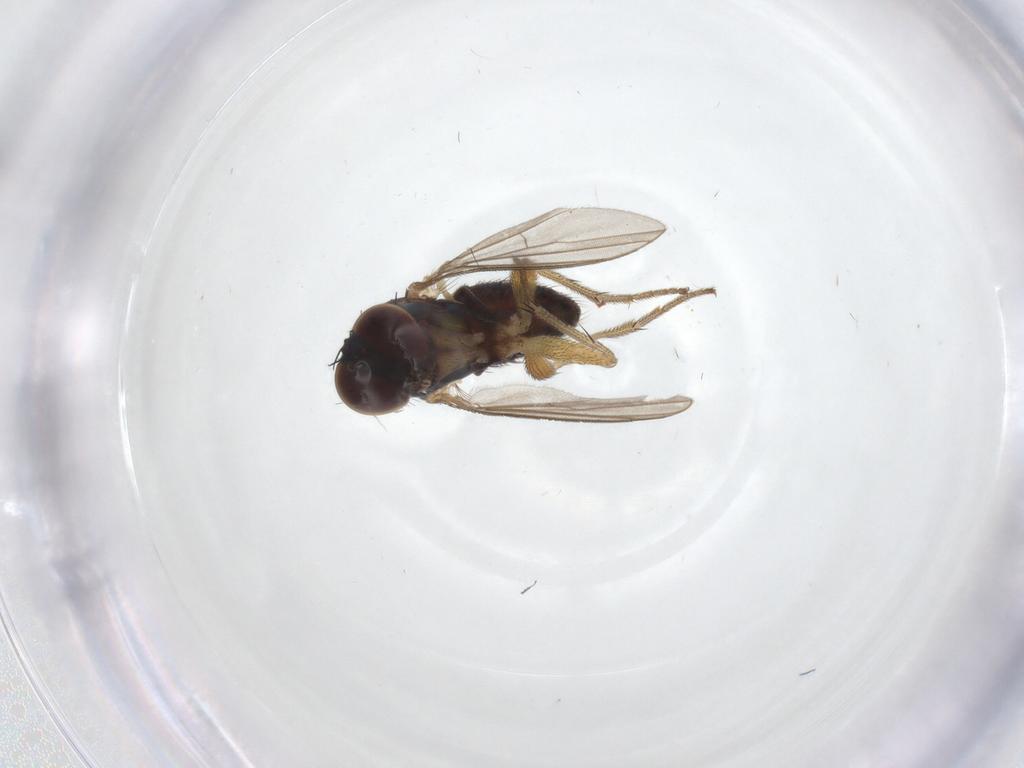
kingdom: Animalia
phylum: Arthropoda
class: Insecta
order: Diptera
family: Dolichopodidae
